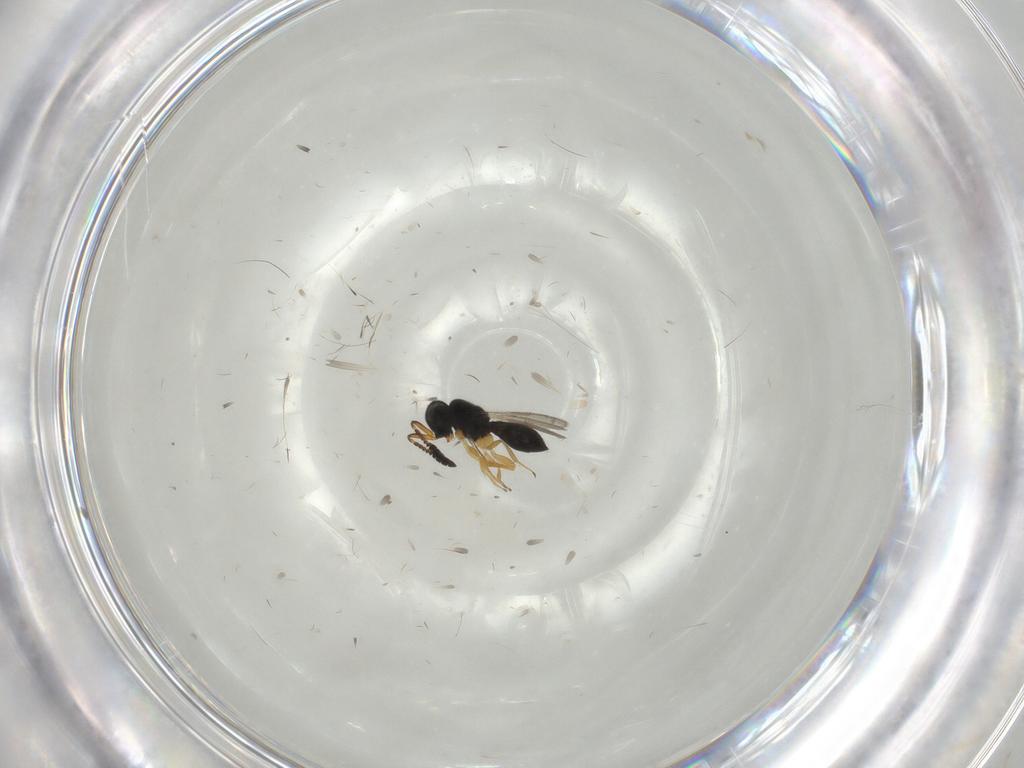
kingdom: Animalia
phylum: Arthropoda
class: Insecta
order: Hymenoptera
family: Scelionidae
